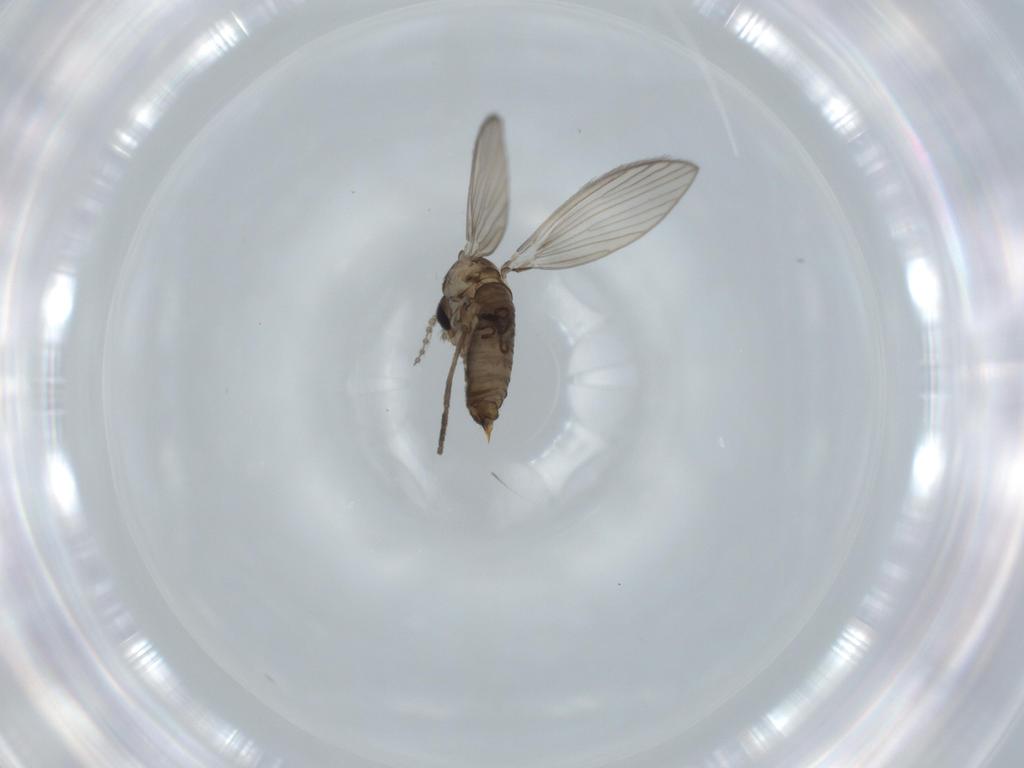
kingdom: Animalia
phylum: Arthropoda
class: Insecta
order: Diptera
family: Psychodidae
